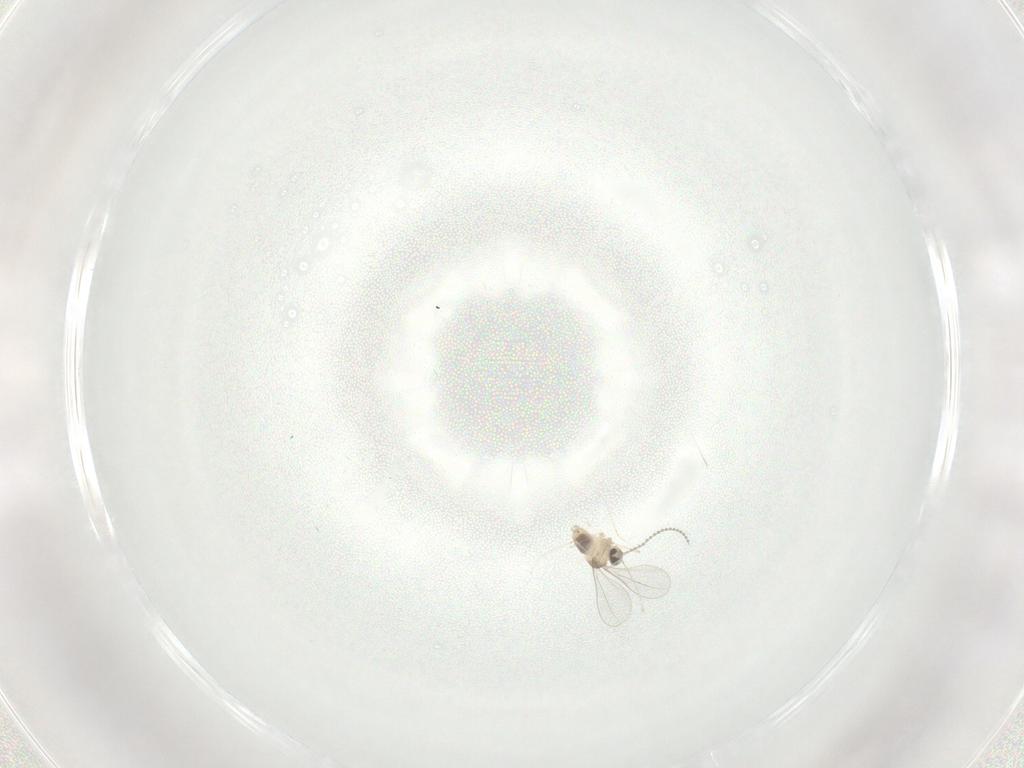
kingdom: Animalia
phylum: Arthropoda
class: Insecta
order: Diptera
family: Cecidomyiidae
